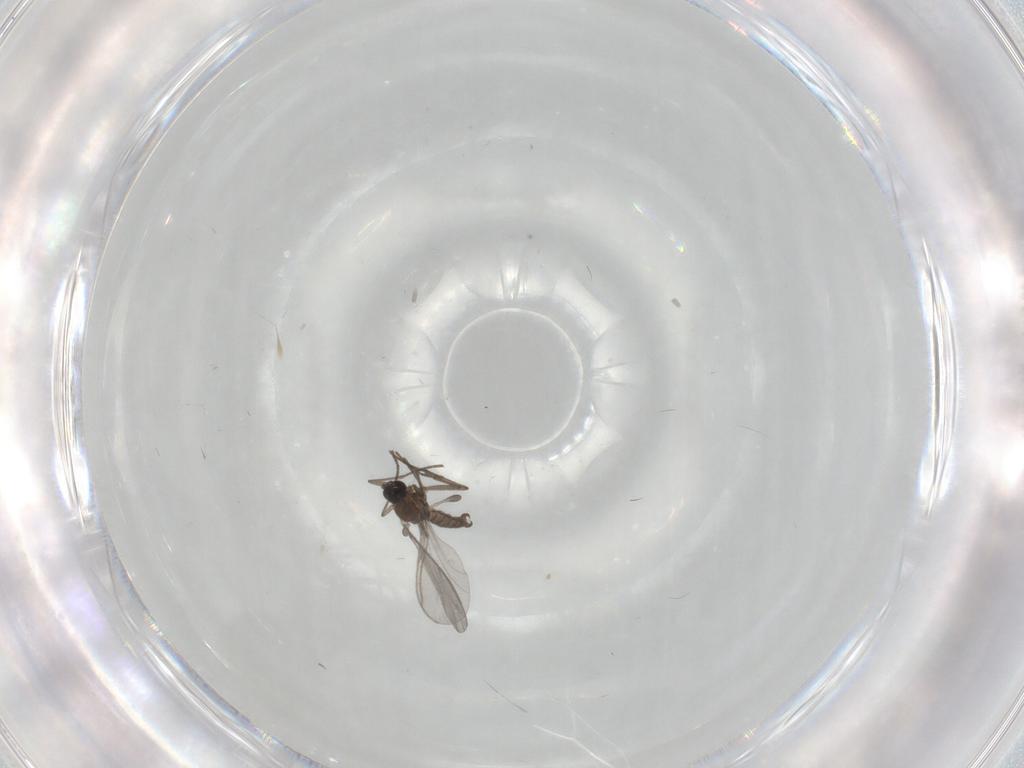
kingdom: Animalia
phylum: Arthropoda
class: Insecta
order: Diptera
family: Sciaridae
